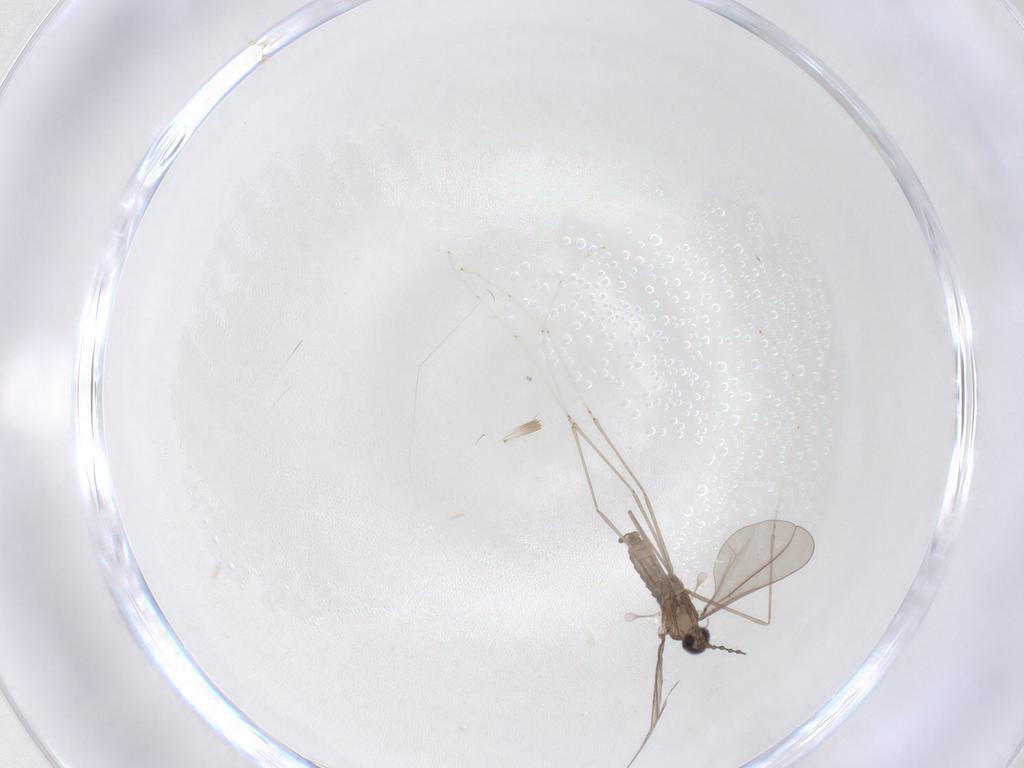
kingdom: Animalia
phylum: Arthropoda
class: Insecta
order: Diptera
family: Cecidomyiidae
